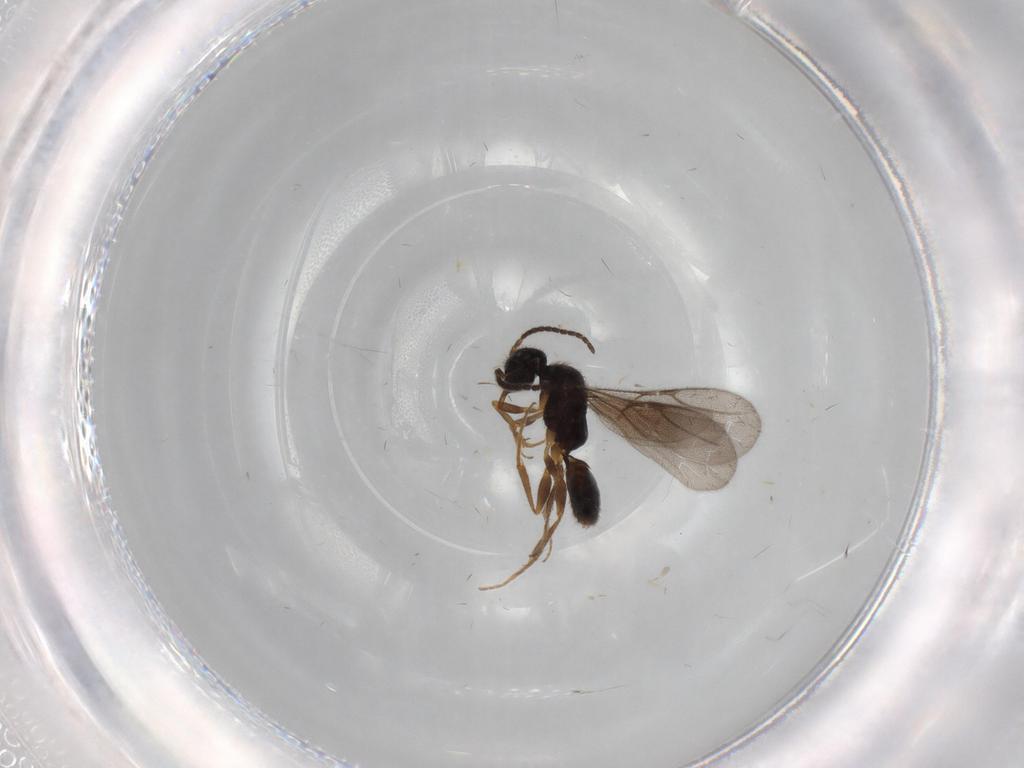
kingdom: Animalia
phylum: Arthropoda
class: Insecta
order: Hymenoptera
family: Bethylidae
